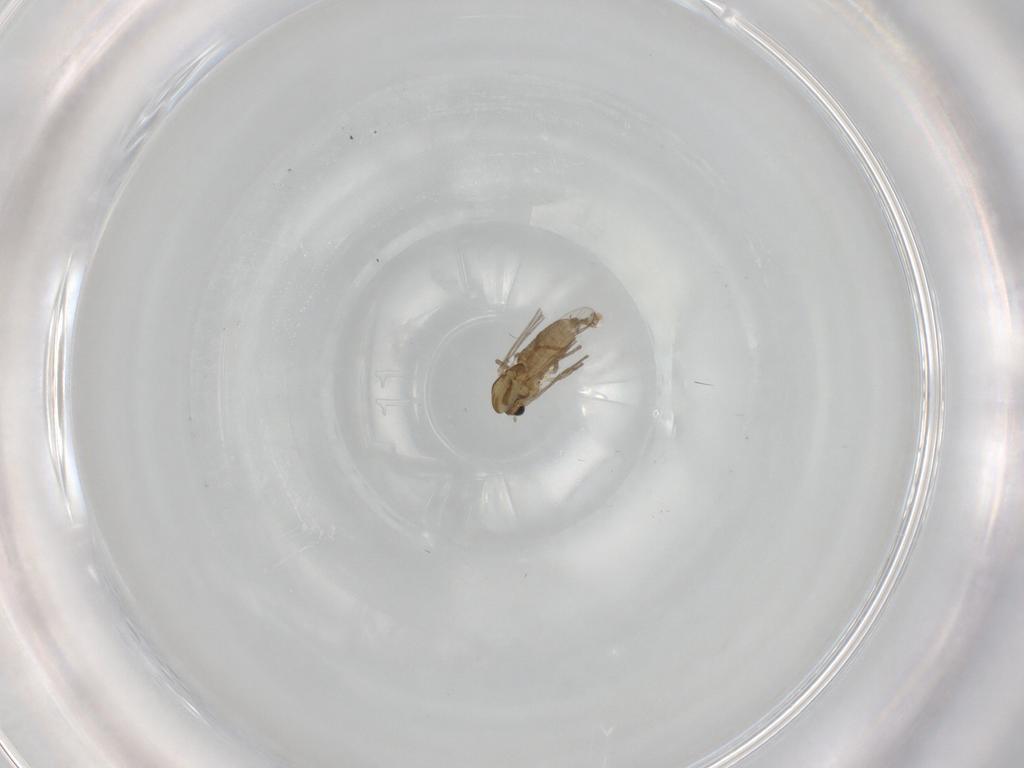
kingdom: Animalia
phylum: Arthropoda
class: Insecta
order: Diptera
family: Chironomidae
